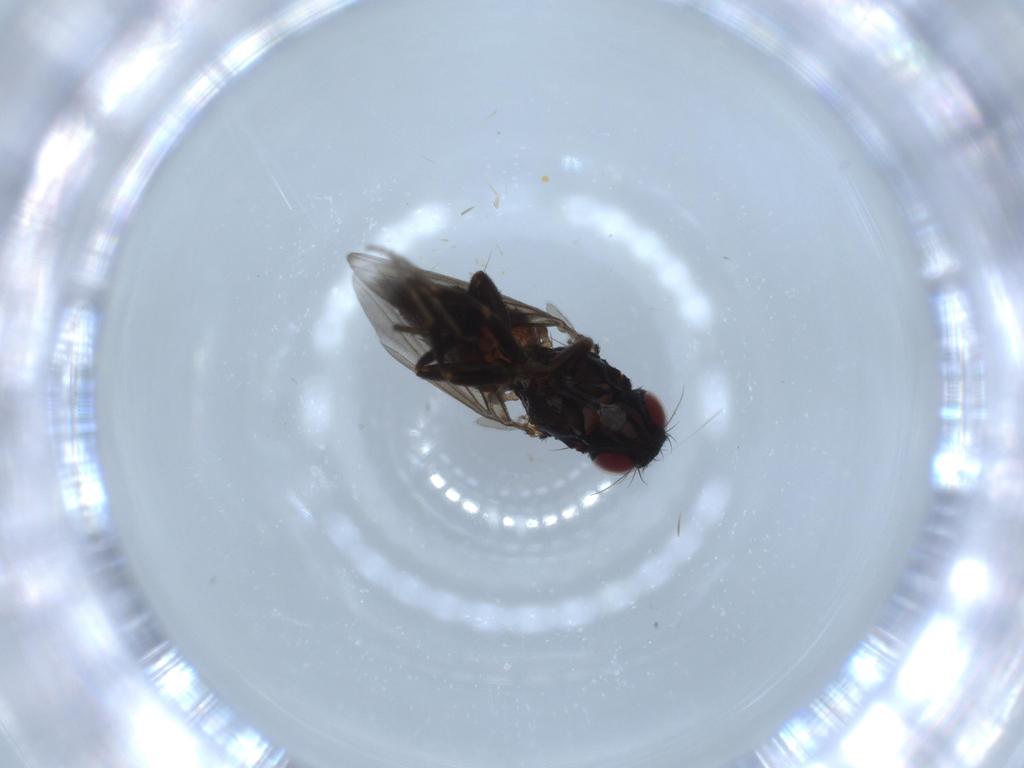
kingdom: Animalia
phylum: Arthropoda
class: Insecta
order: Diptera
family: Milichiidae
